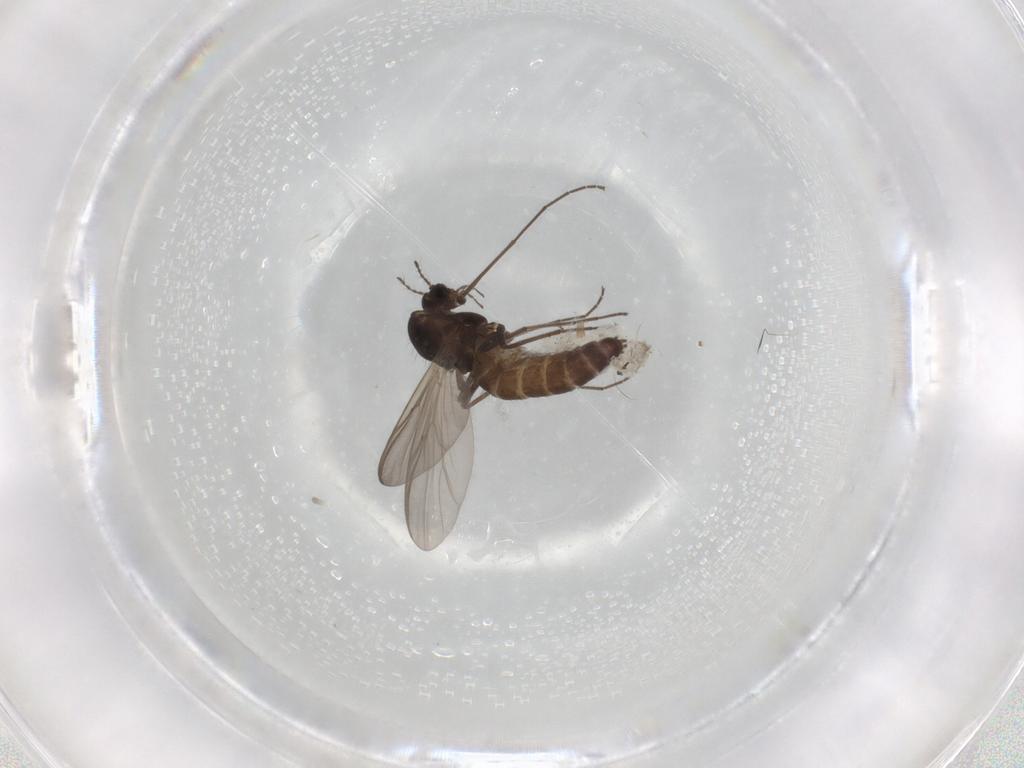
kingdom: Animalia
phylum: Arthropoda
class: Insecta
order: Diptera
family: Chironomidae
